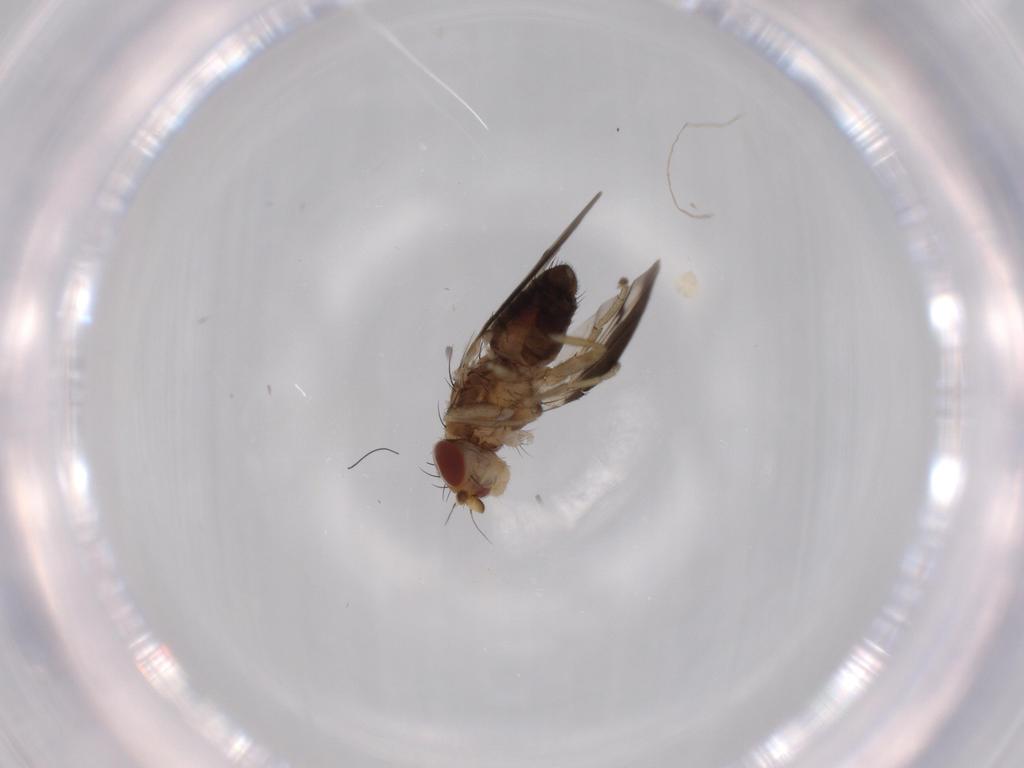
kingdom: Animalia
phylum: Arthropoda
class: Insecta
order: Diptera
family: Heleomyzidae
